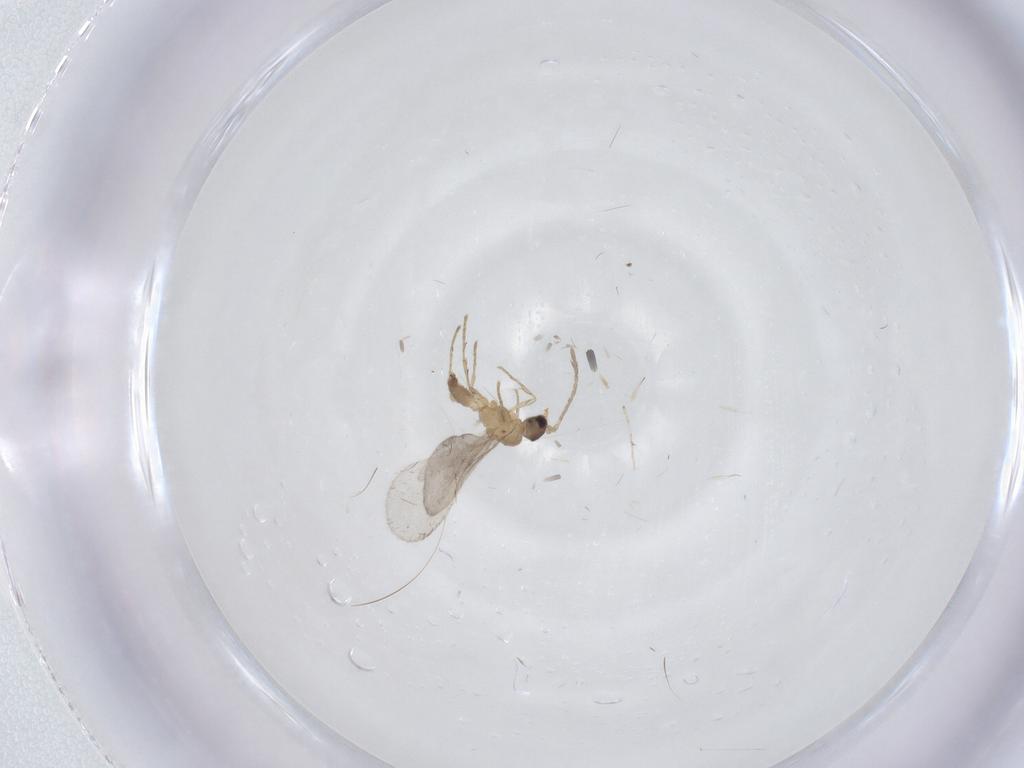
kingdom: Animalia
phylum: Arthropoda
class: Insecta
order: Hymenoptera
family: Formicidae
